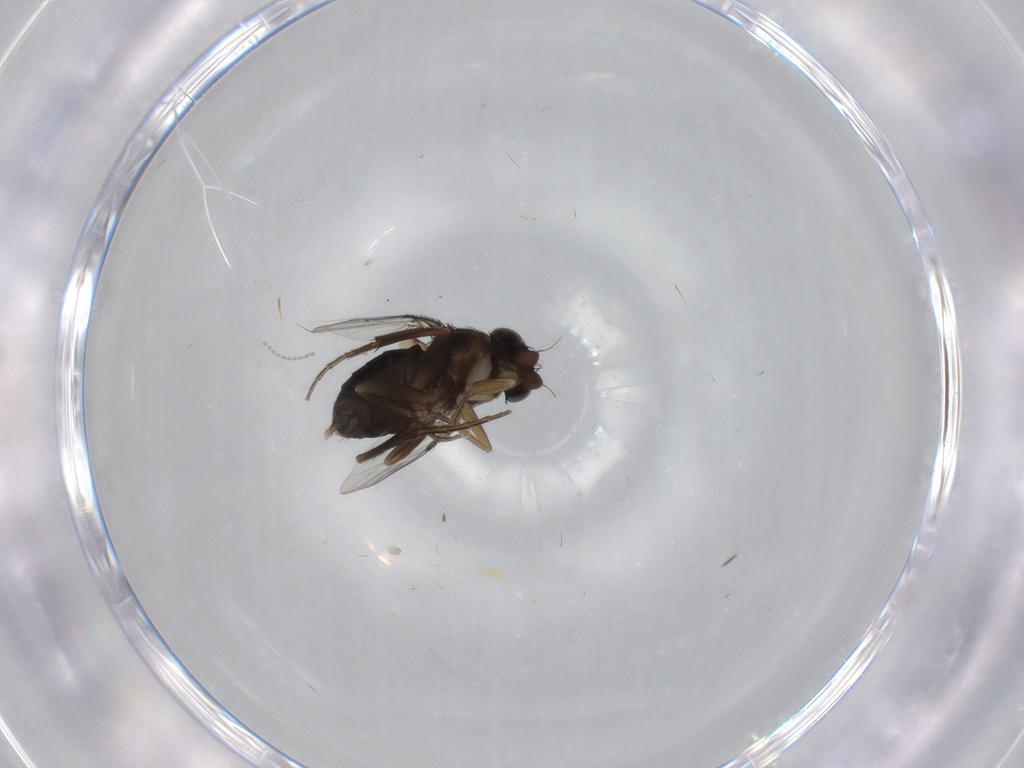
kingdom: Animalia
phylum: Arthropoda
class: Insecta
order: Diptera
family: Phoridae
